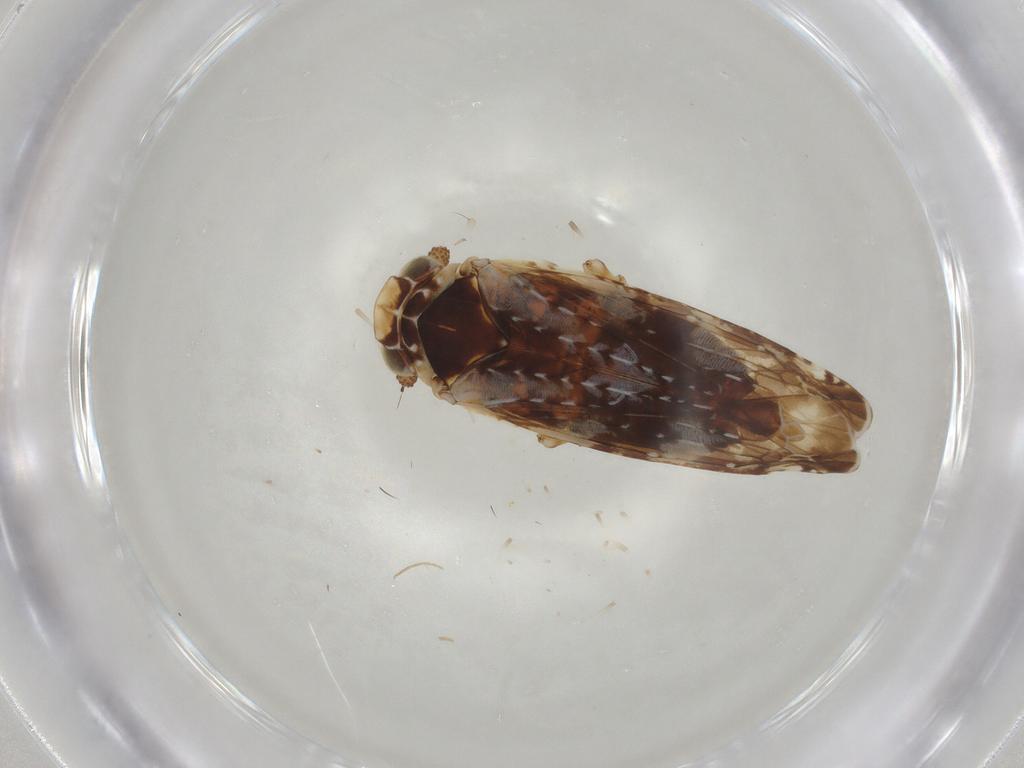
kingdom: Animalia
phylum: Arthropoda
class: Insecta
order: Hemiptera
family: Achilidae
